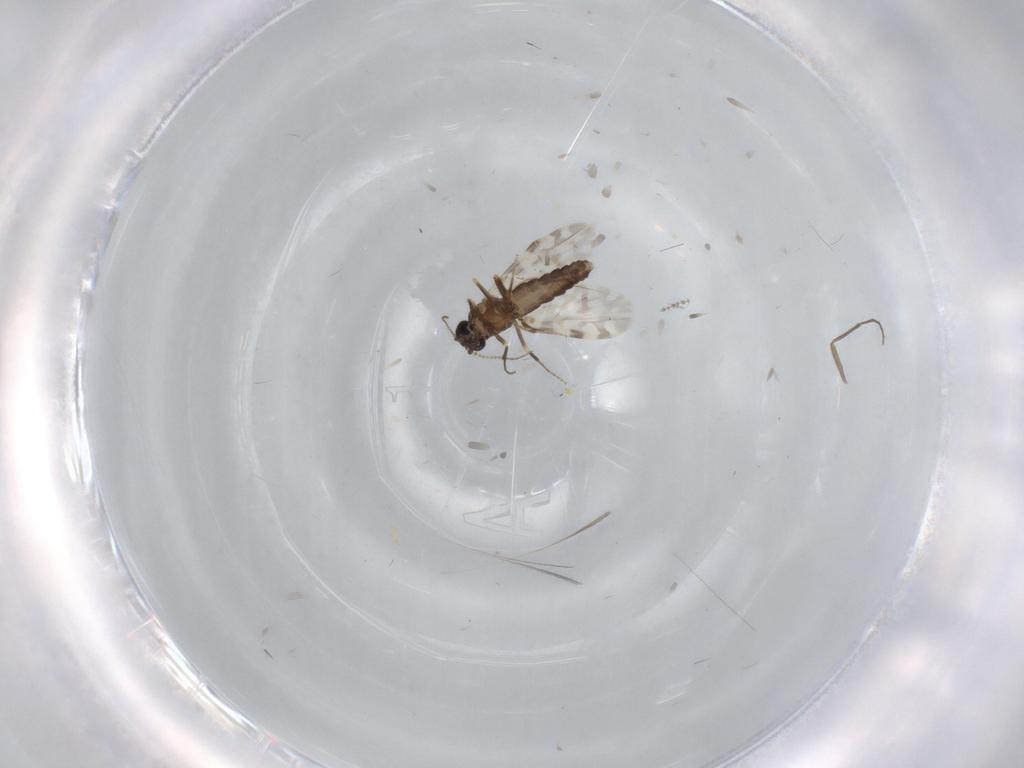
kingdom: Animalia
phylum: Arthropoda
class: Insecta
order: Diptera
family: Ceratopogonidae
